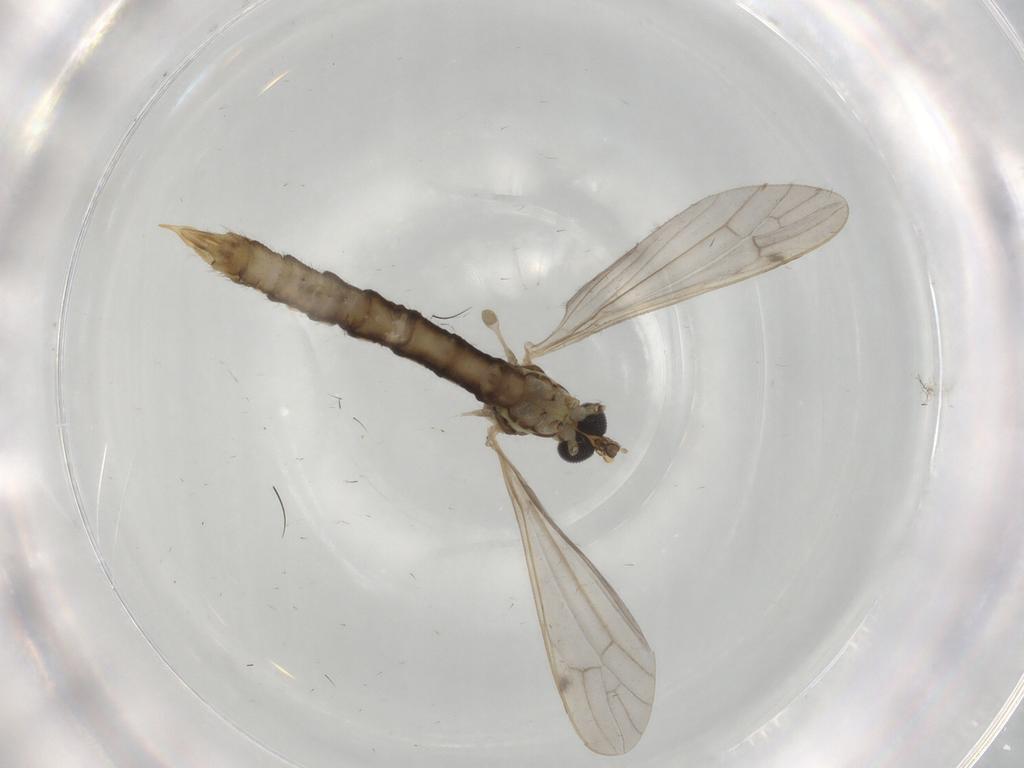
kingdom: Animalia
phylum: Arthropoda
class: Insecta
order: Diptera
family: Limoniidae
